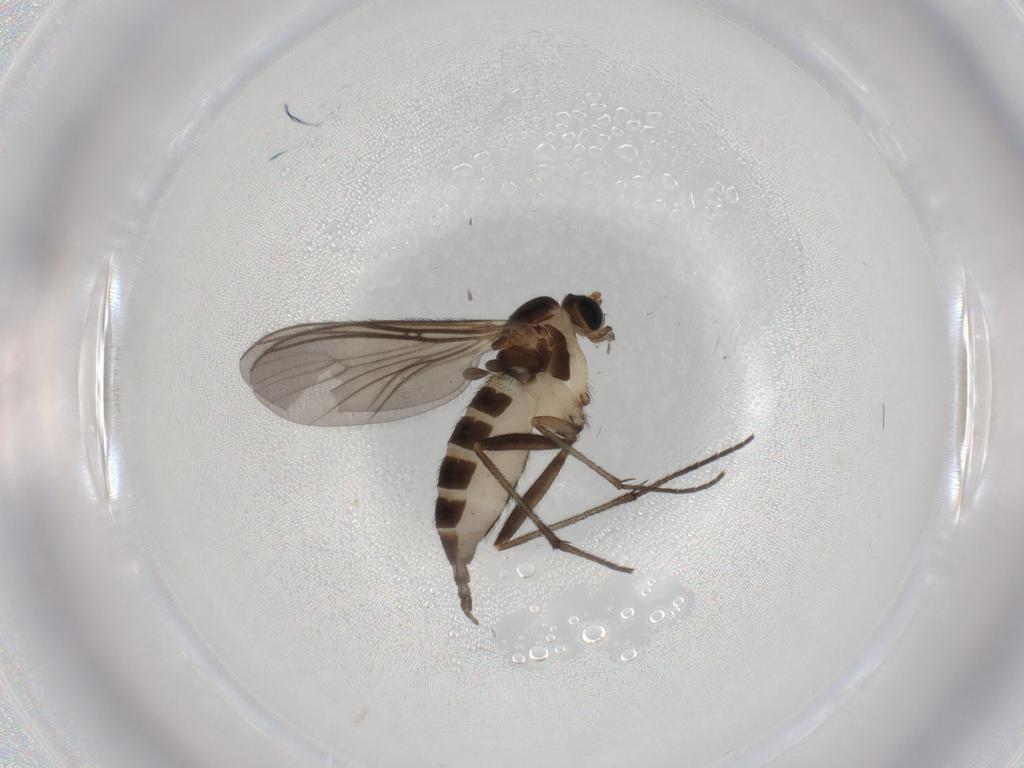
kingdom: Animalia
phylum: Arthropoda
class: Insecta
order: Diptera
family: Sciaridae
